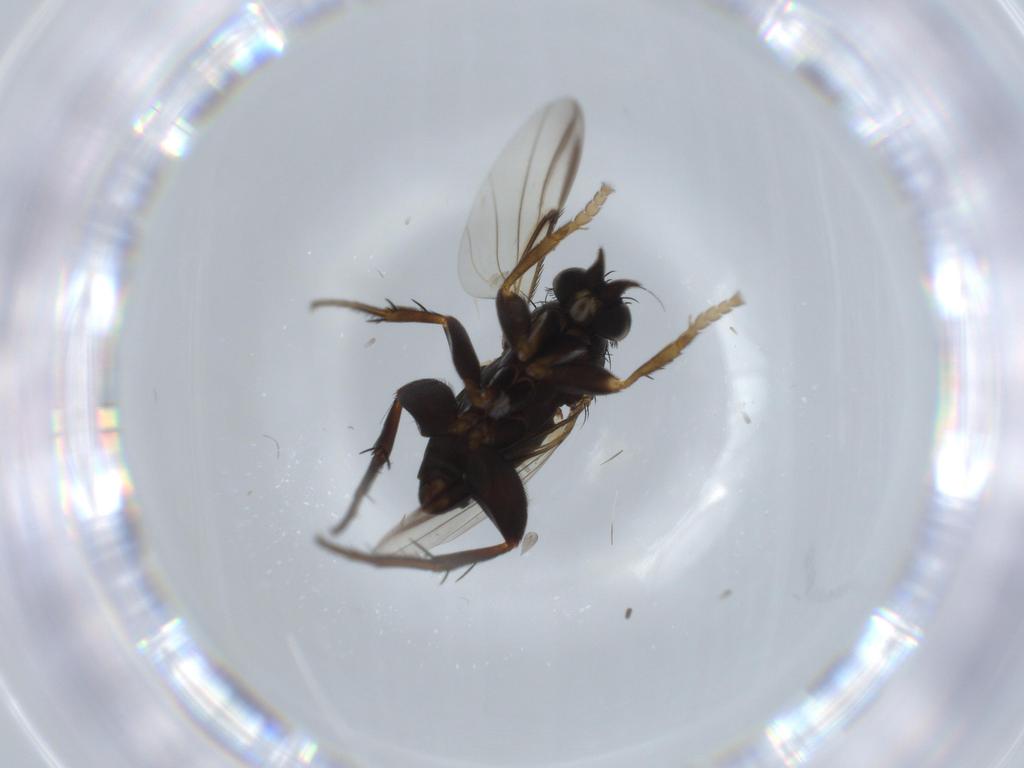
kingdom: Animalia
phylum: Arthropoda
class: Insecta
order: Diptera
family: Phoridae
